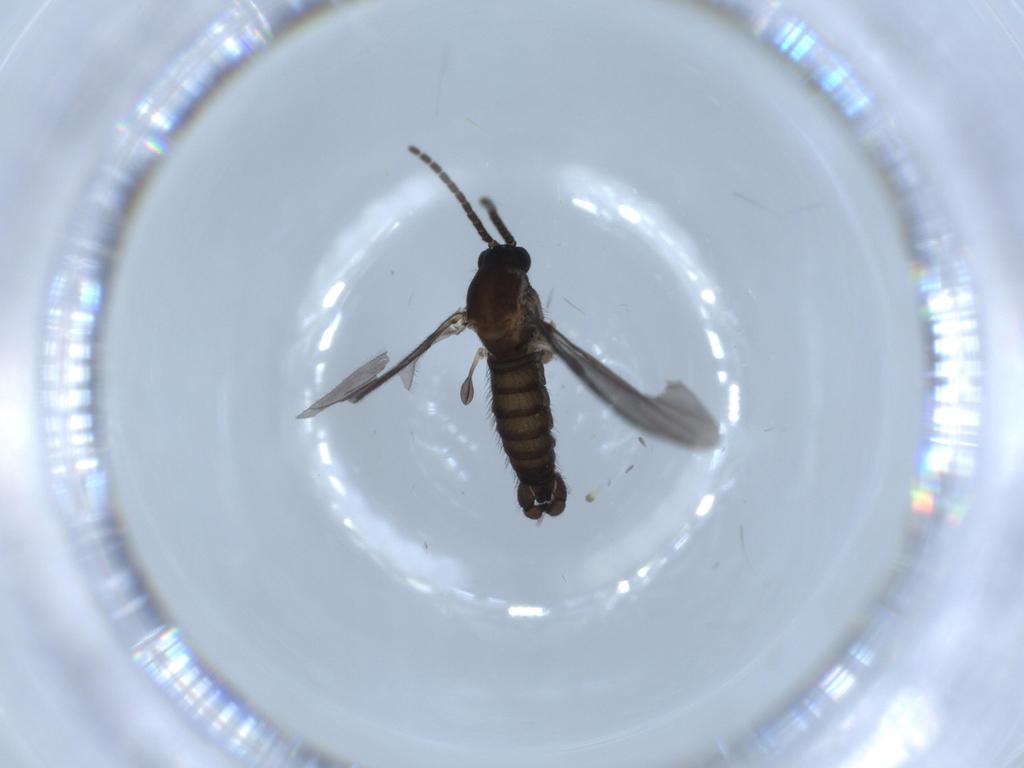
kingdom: Animalia
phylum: Arthropoda
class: Insecta
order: Diptera
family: Sciaridae
